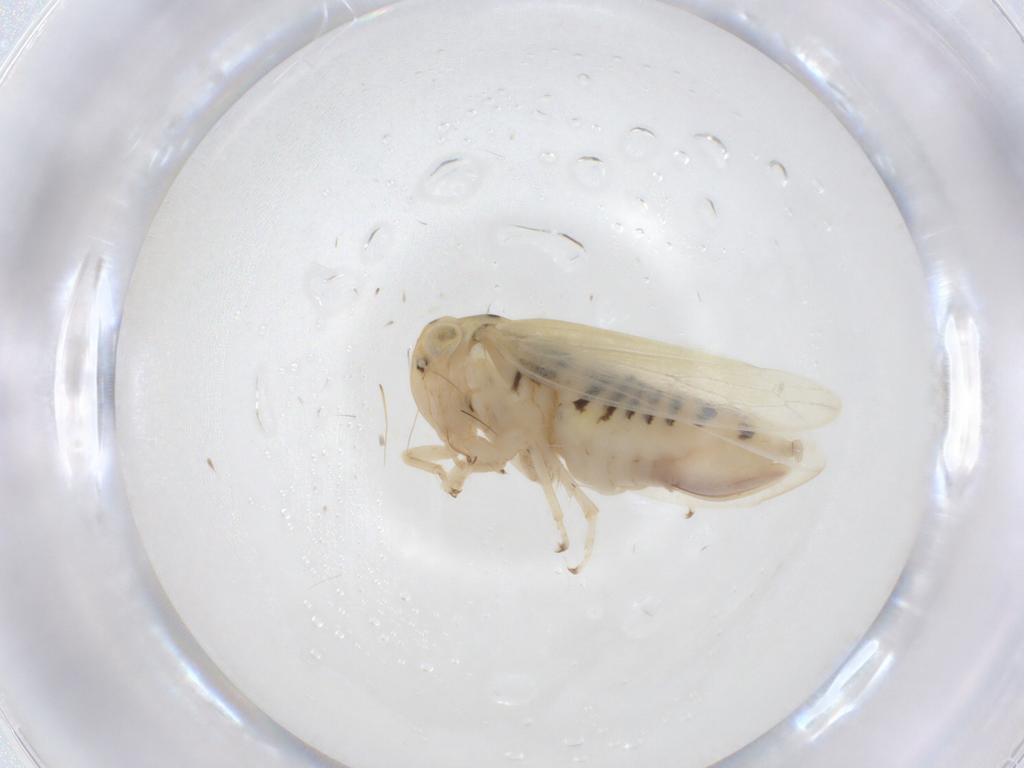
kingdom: Animalia
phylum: Arthropoda
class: Insecta
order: Hemiptera
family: Cicadellidae
